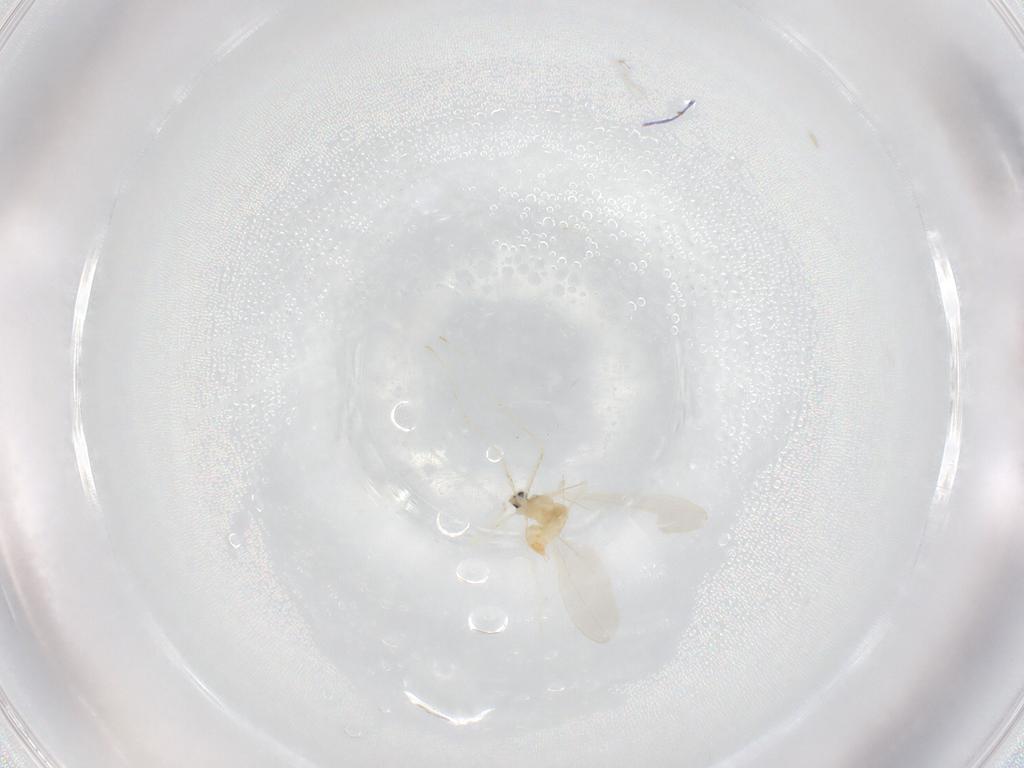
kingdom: Animalia
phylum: Arthropoda
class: Insecta
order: Diptera
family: Cecidomyiidae
